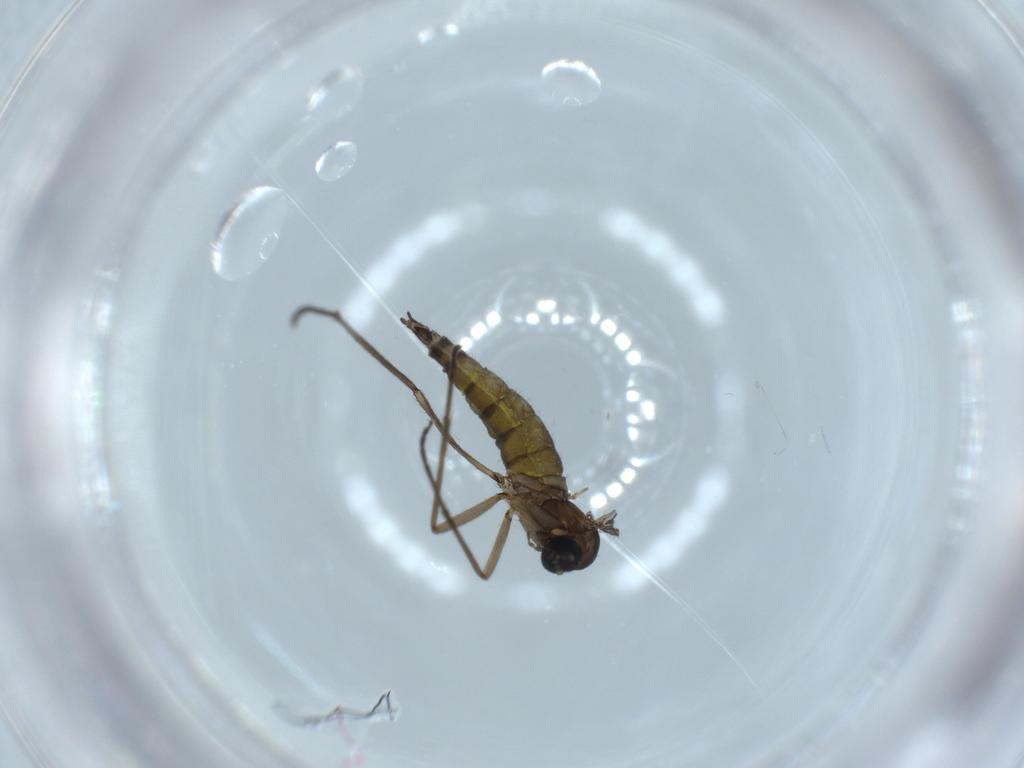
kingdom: Animalia
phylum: Arthropoda
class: Insecta
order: Diptera
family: Sciaridae
